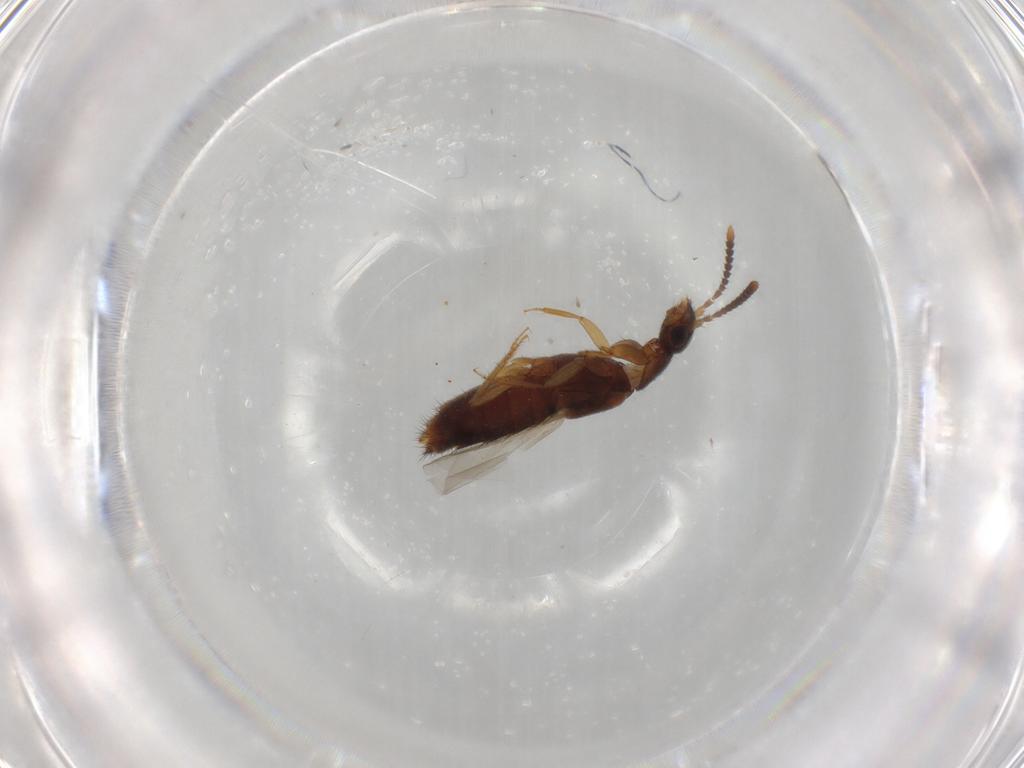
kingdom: Animalia
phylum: Arthropoda
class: Insecta
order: Coleoptera
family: Staphylinidae
